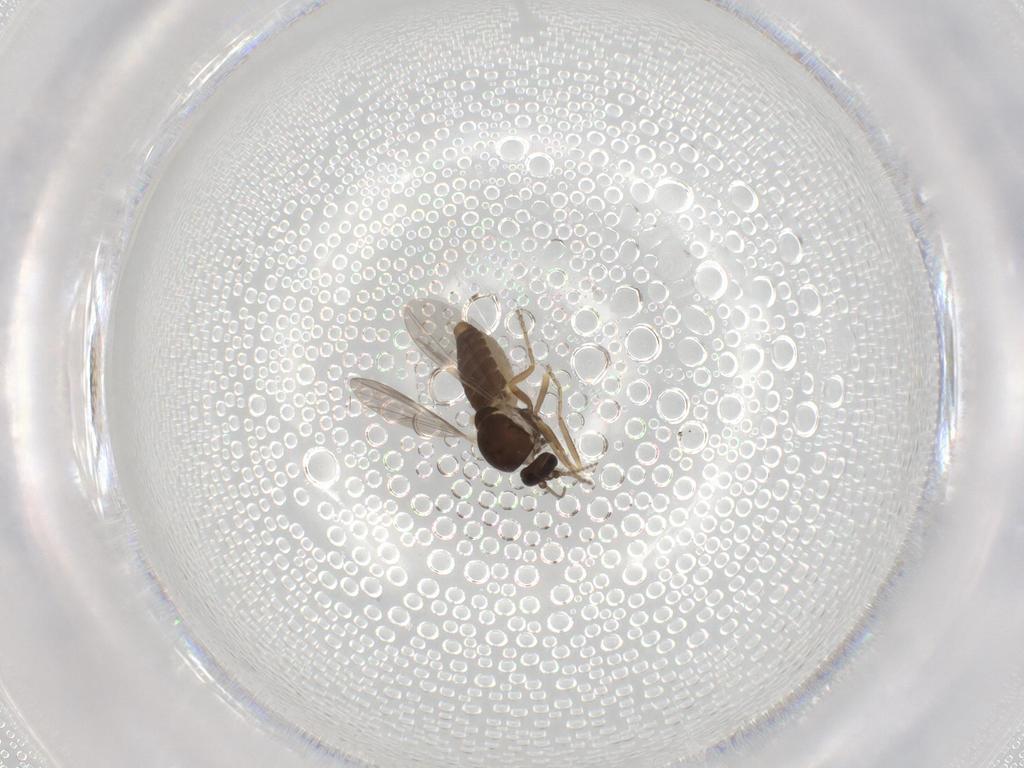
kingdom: Animalia
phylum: Arthropoda
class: Insecta
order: Diptera
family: Ceratopogonidae
